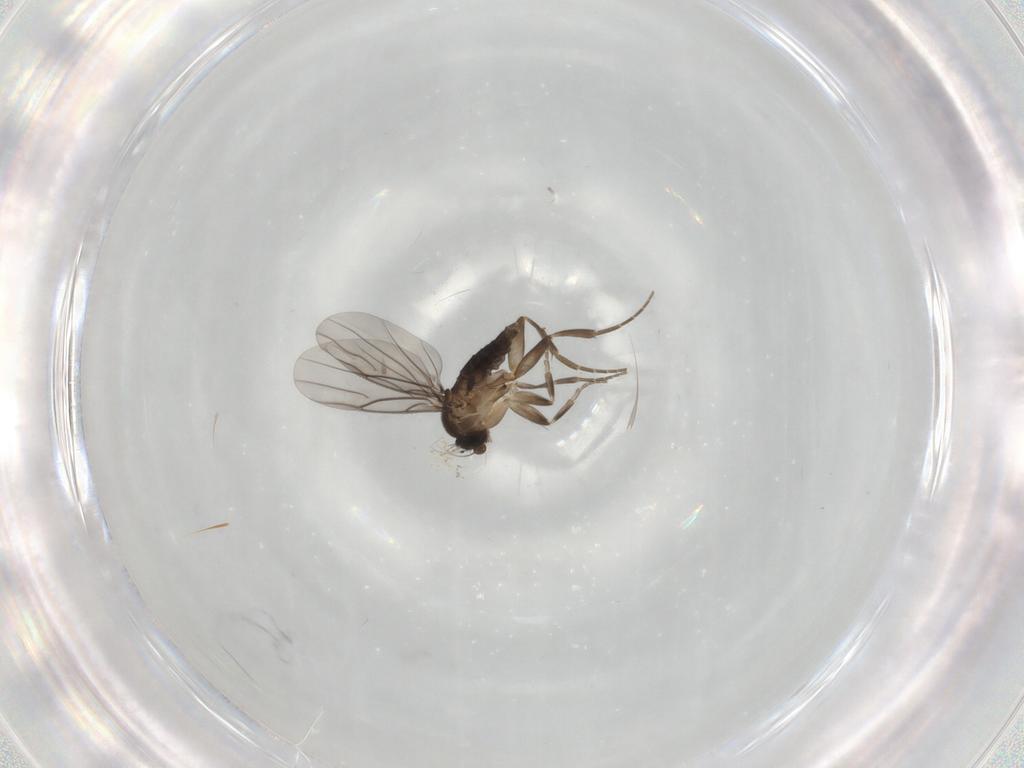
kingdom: Animalia
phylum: Arthropoda
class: Insecta
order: Diptera
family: Phoridae
